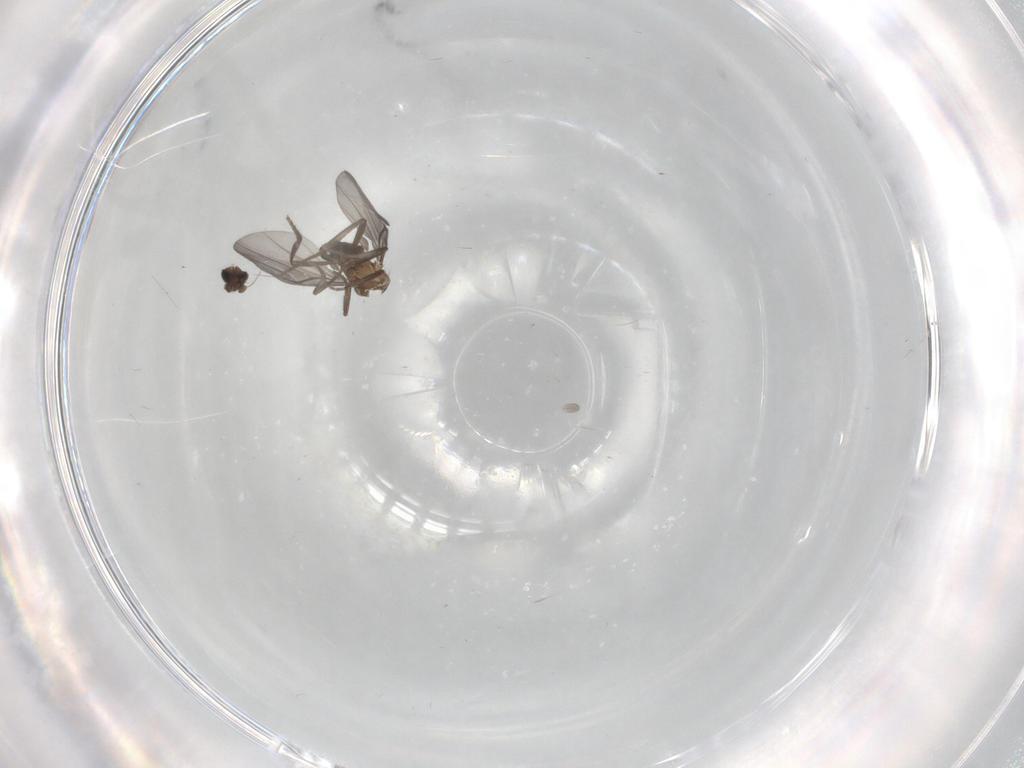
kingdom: Animalia
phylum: Arthropoda
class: Insecta
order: Diptera
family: Phoridae
